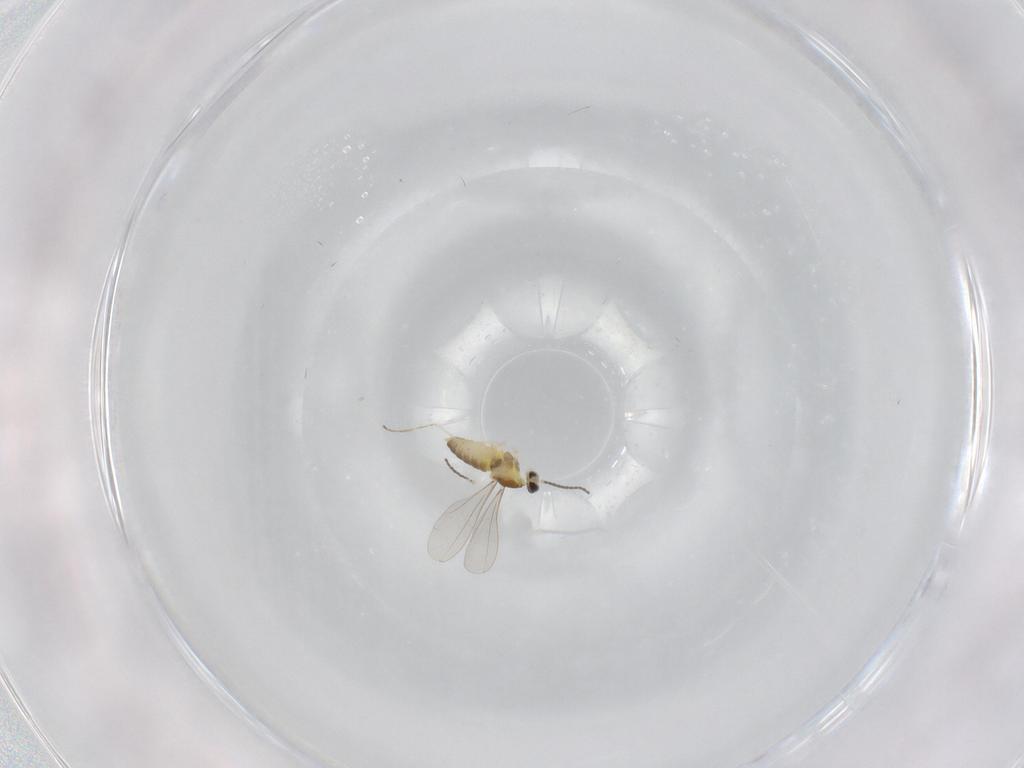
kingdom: Animalia
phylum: Arthropoda
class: Insecta
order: Diptera
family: Cecidomyiidae
